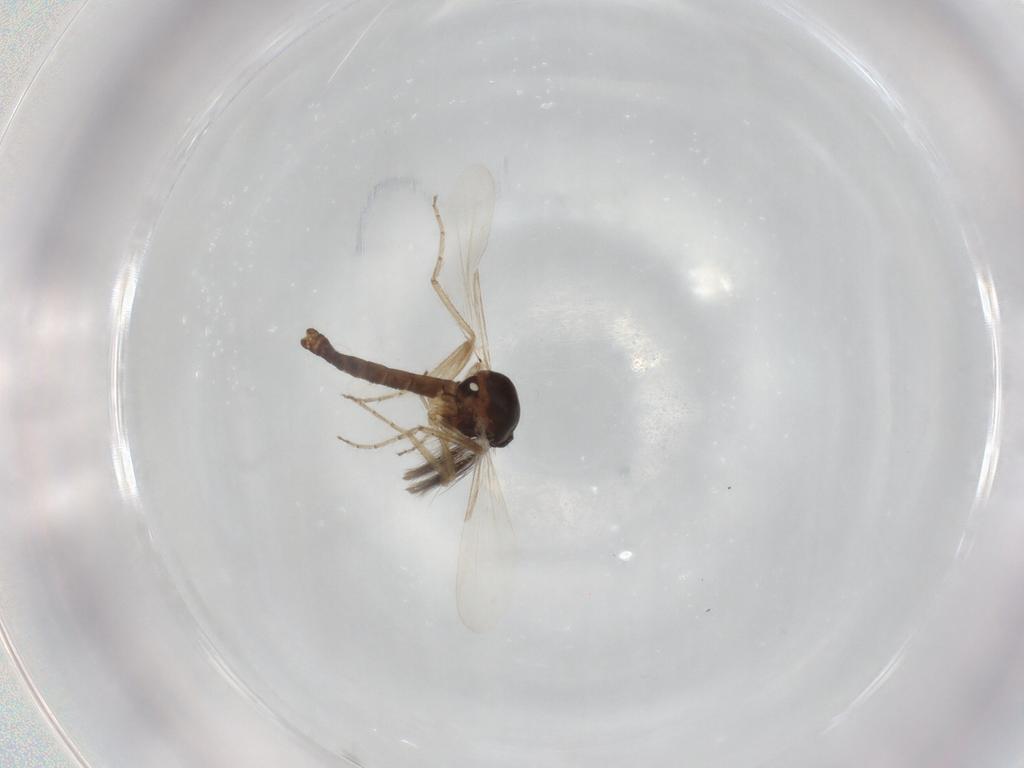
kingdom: Animalia
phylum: Arthropoda
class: Insecta
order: Diptera
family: Ceratopogonidae
